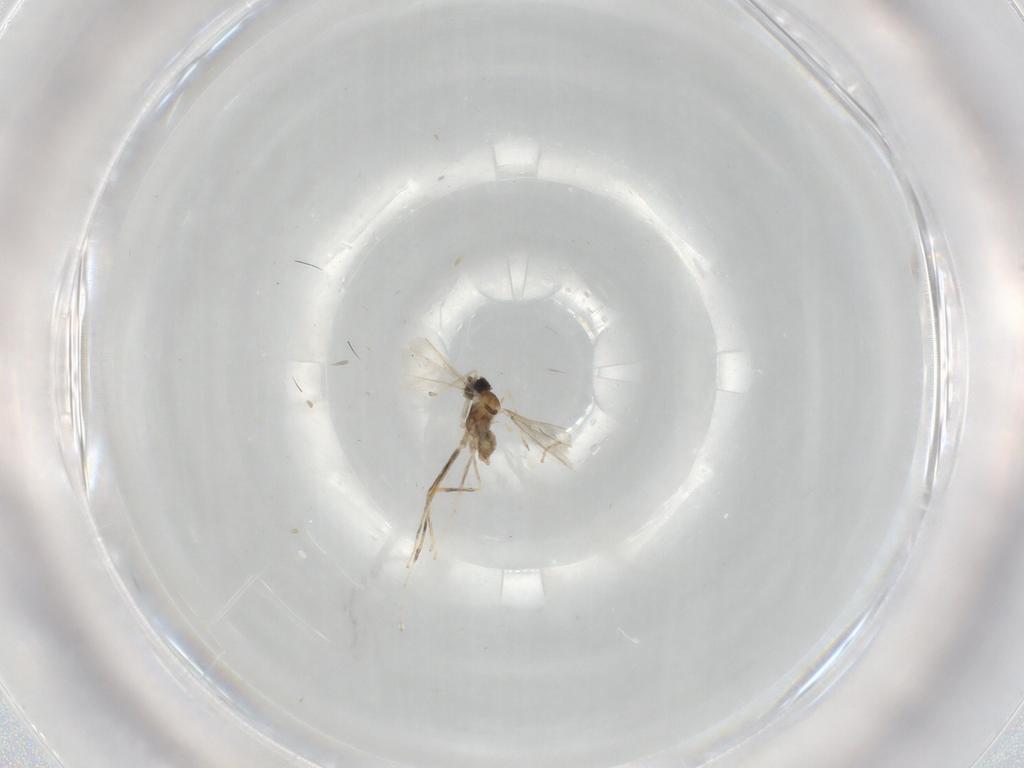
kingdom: Animalia
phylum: Arthropoda
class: Insecta
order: Diptera
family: Cecidomyiidae
